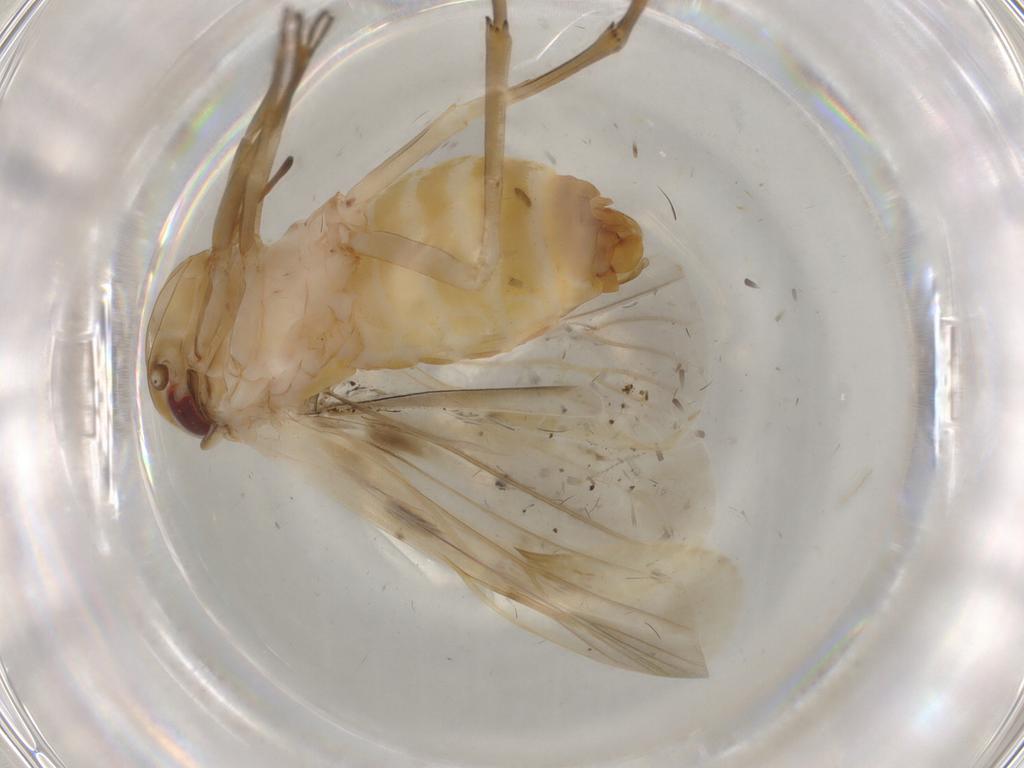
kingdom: Animalia
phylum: Arthropoda
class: Insecta
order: Hemiptera
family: Achilidae
